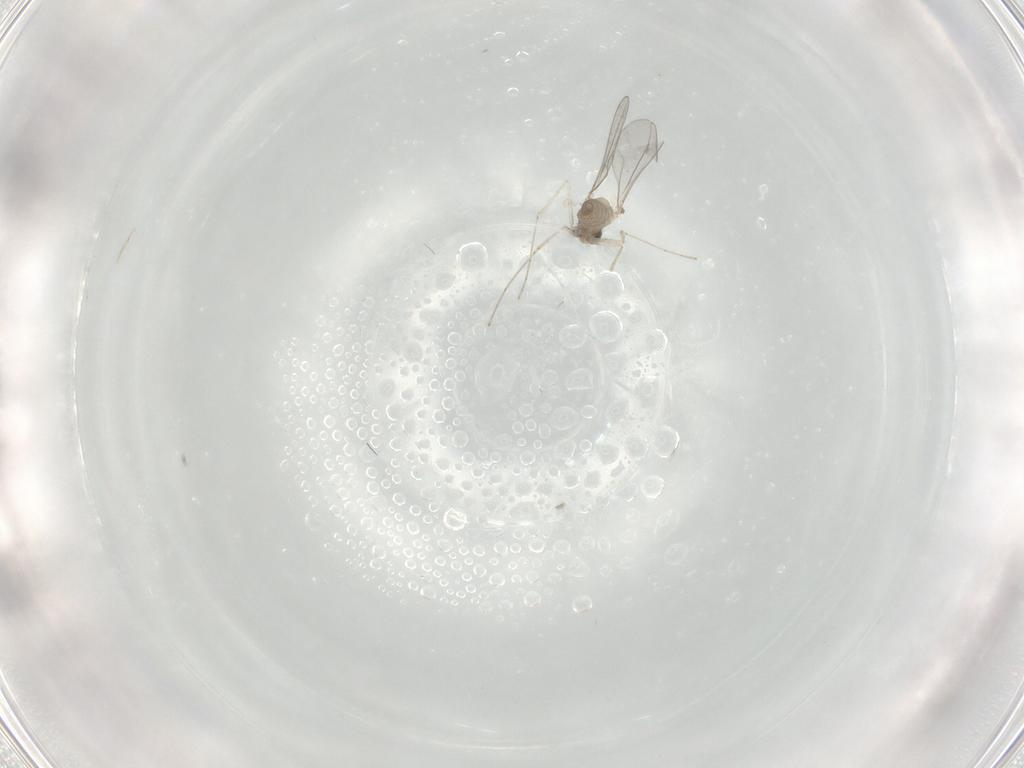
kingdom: Animalia
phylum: Arthropoda
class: Insecta
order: Diptera
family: Cecidomyiidae
